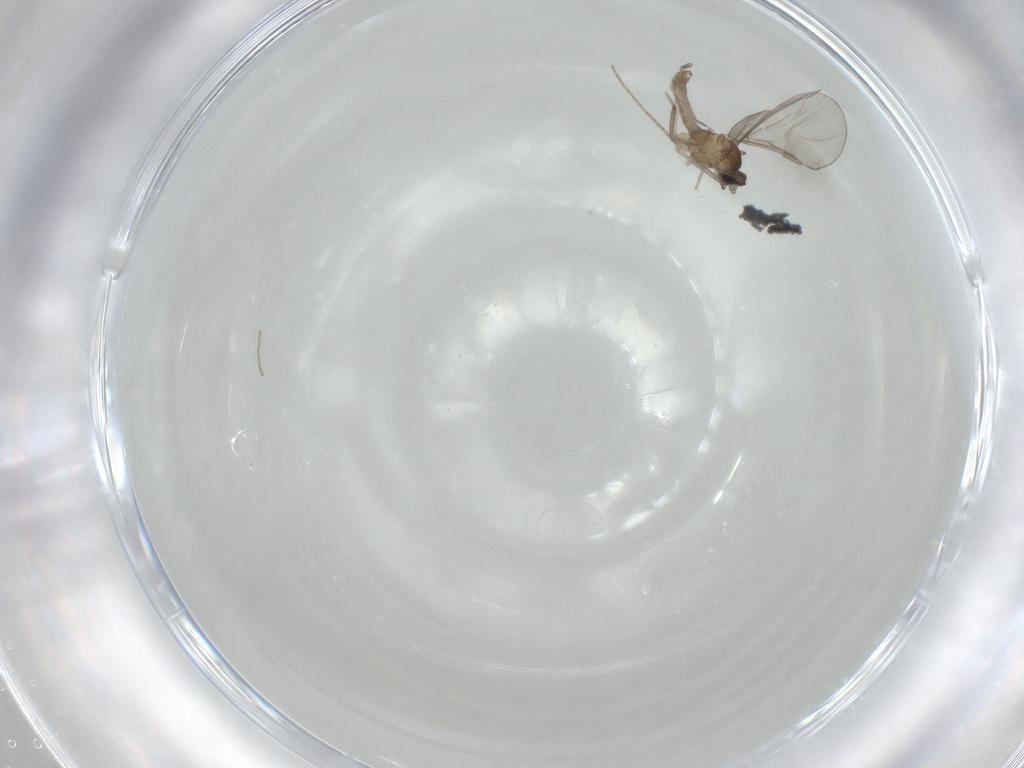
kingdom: Animalia
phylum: Arthropoda
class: Insecta
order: Diptera
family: Cecidomyiidae
